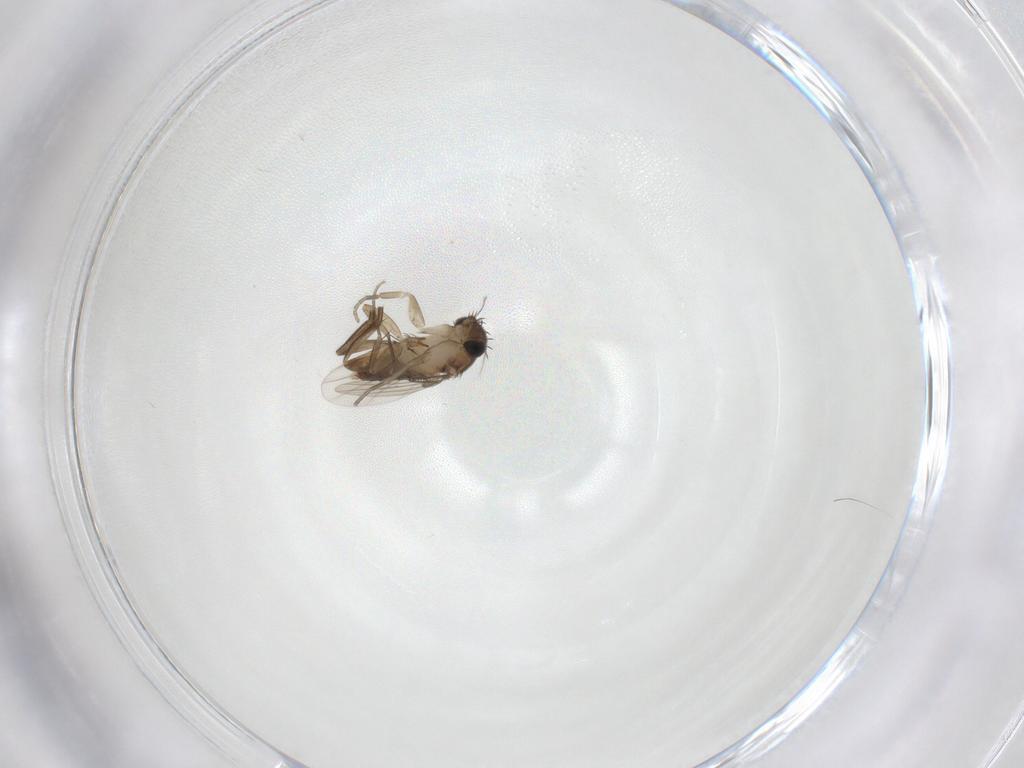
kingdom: Animalia
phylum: Arthropoda
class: Insecta
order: Diptera
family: Phoridae
